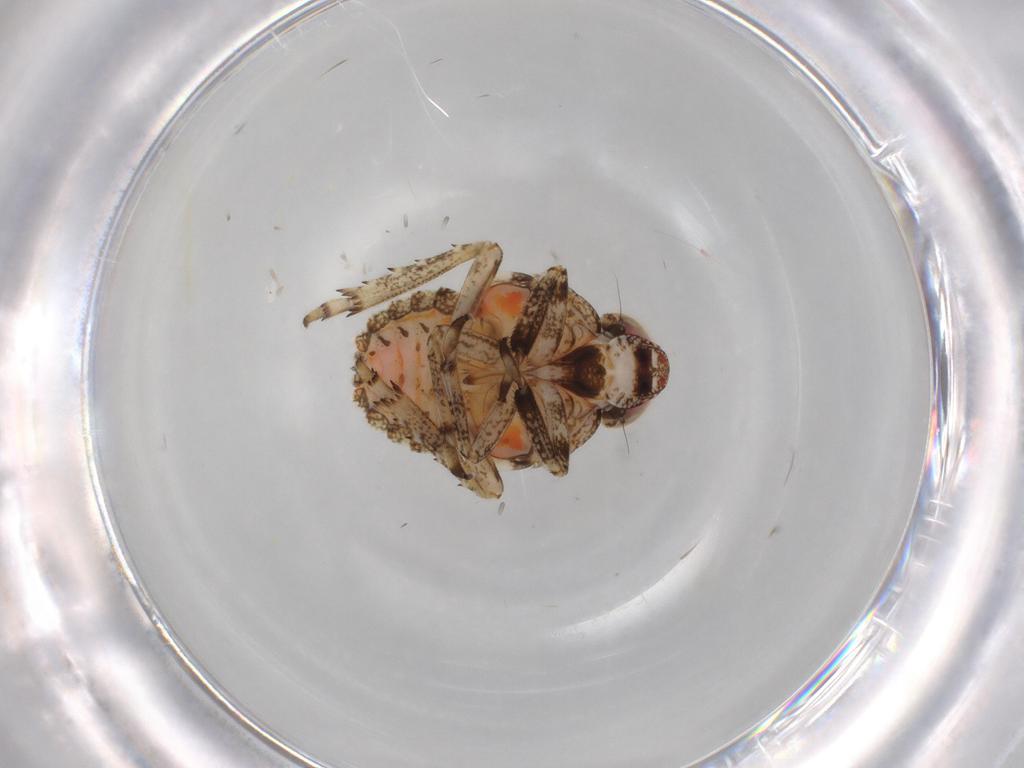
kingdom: Animalia
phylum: Arthropoda
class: Insecta
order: Hemiptera
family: Issidae
